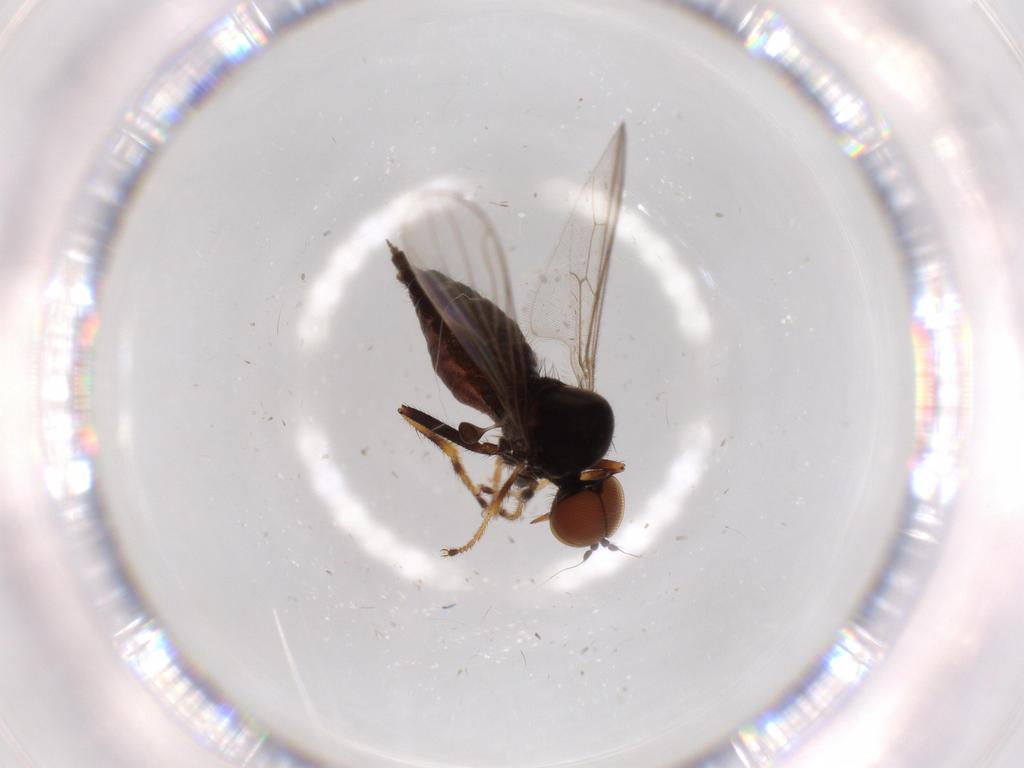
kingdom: Animalia
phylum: Arthropoda
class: Insecta
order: Diptera
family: Hybotidae
